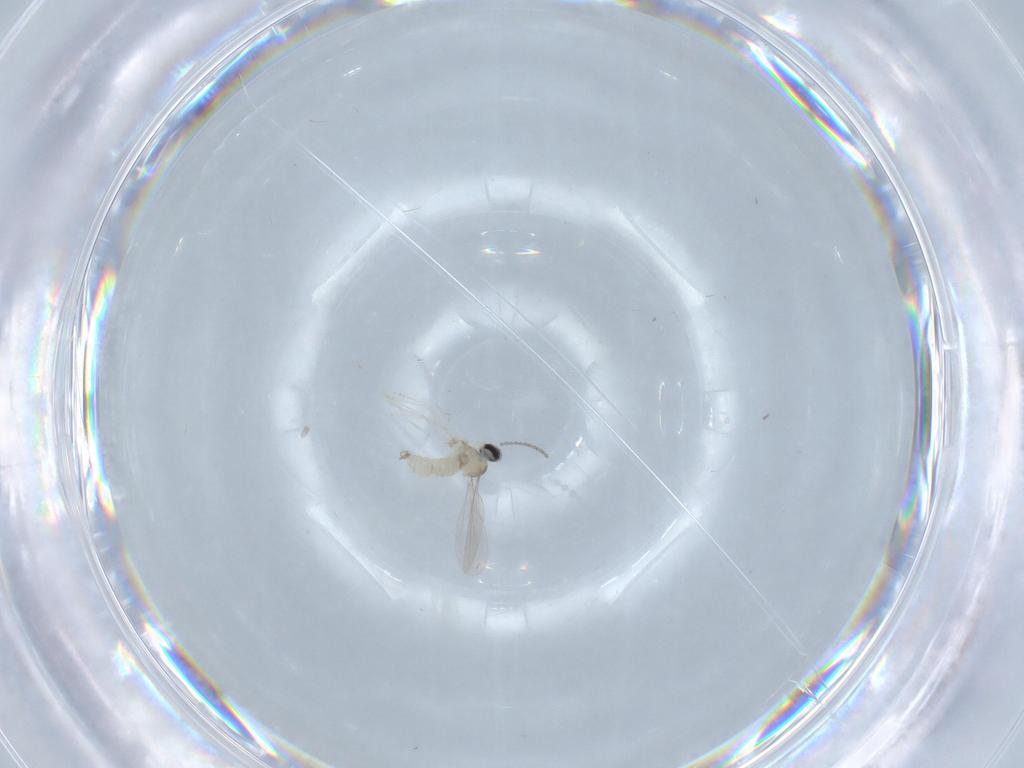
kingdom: Animalia
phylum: Arthropoda
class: Insecta
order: Diptera
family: Cecidomyiidae
